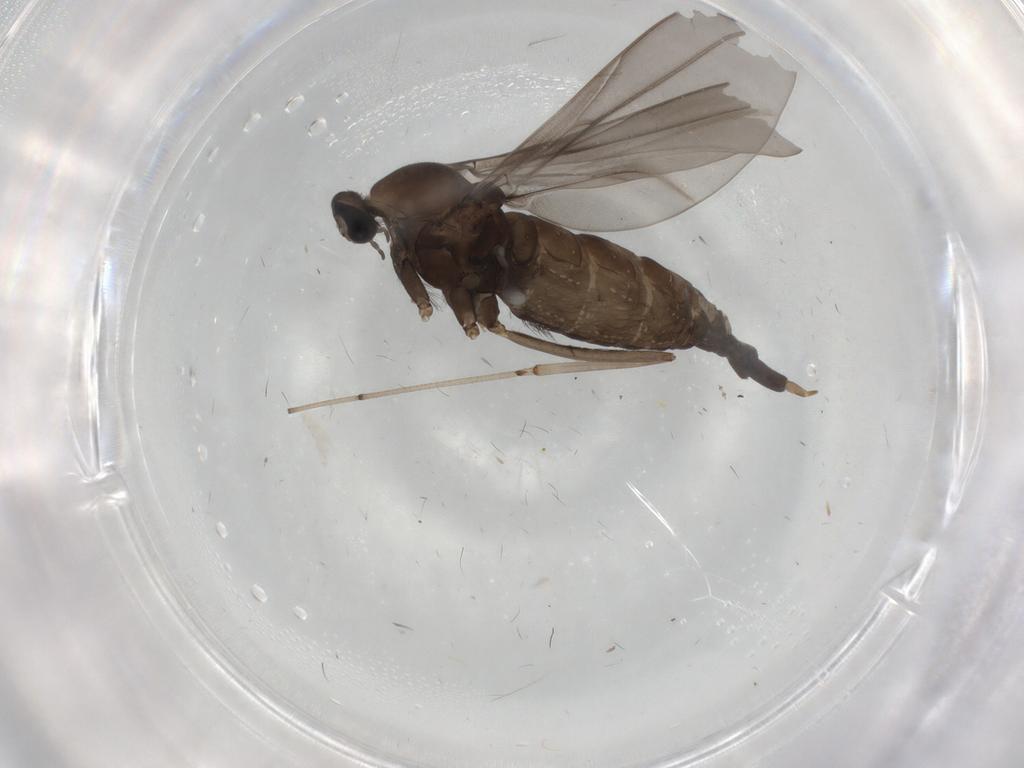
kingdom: Animalia
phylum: Arthropoda
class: Insecta
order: Diptera
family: Cecidomyiidae
